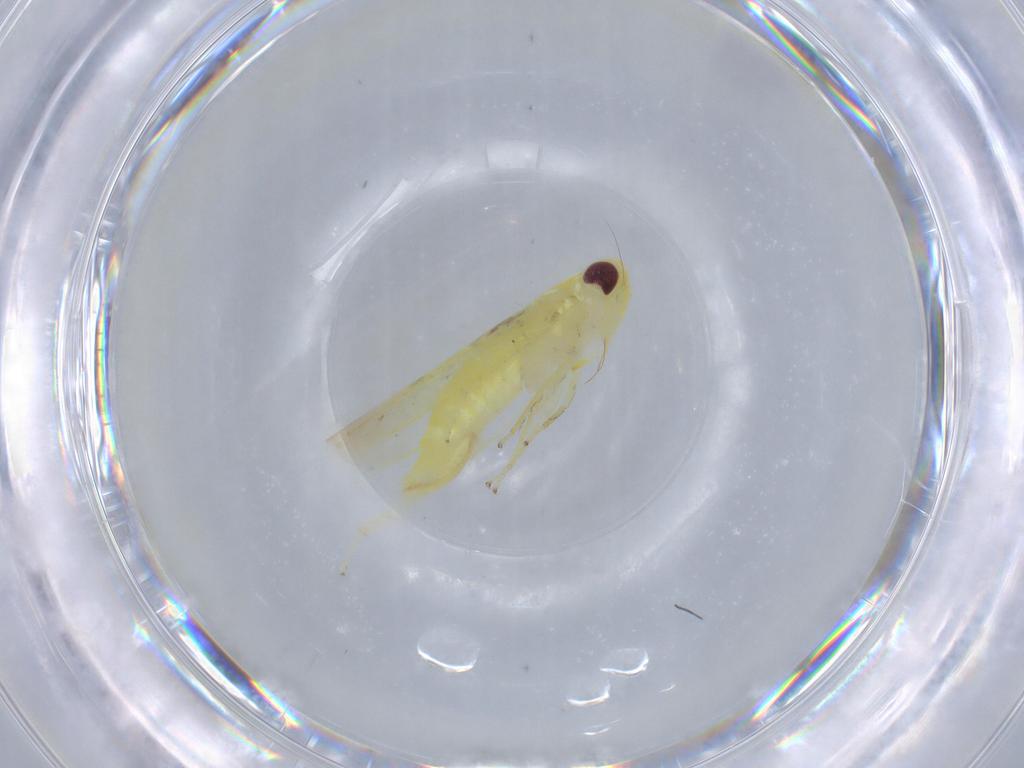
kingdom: Animalia
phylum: Arthropoda
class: Insecta
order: Hemiptera
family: Cicadellidae
